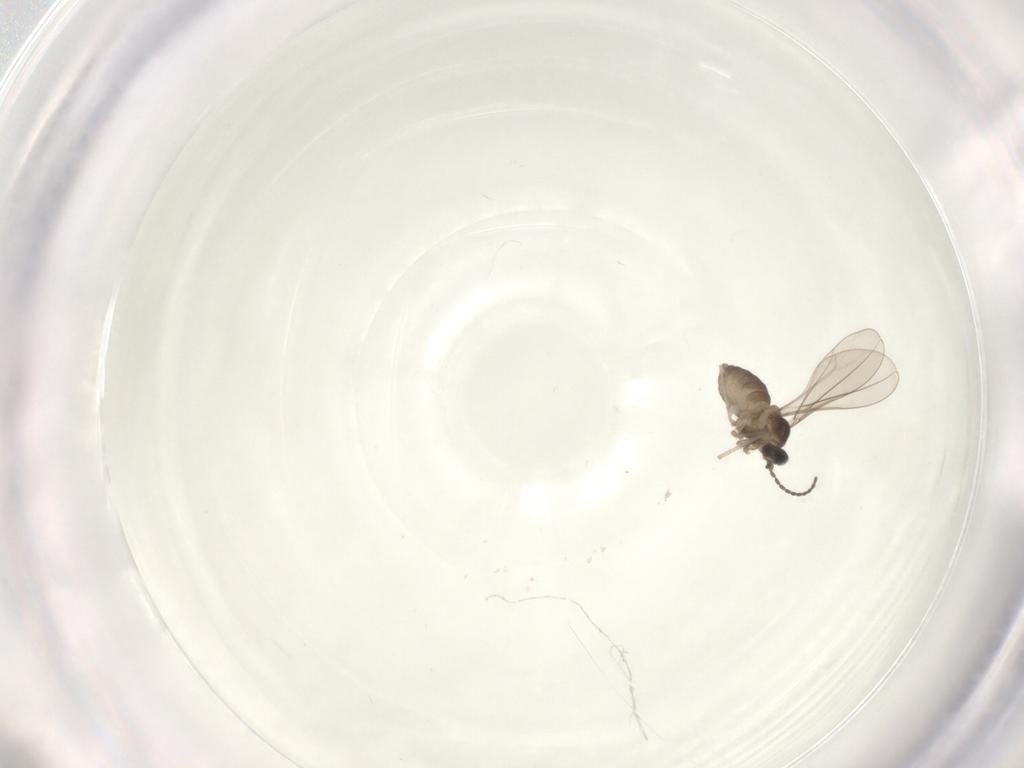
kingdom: Animalia
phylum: Arthropoda
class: Insecta
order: Diptera
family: Cecidomyiidae
